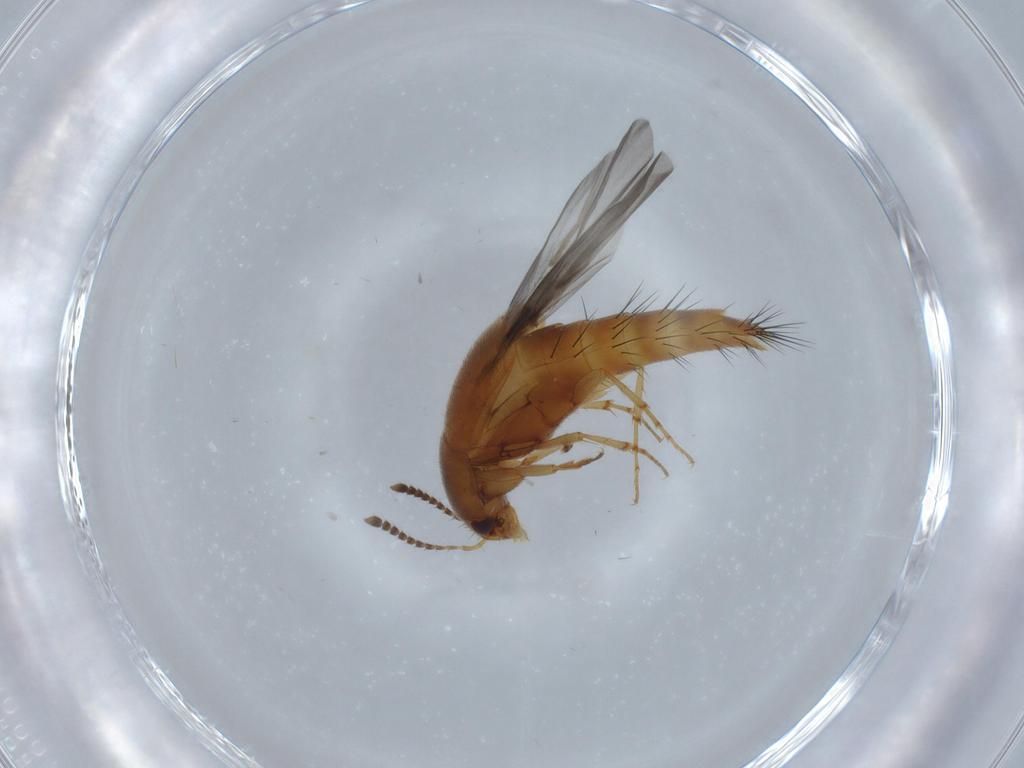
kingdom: Animalia
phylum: Arthropoda
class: Insecta
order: Coleoptera
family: Staphylinidae
